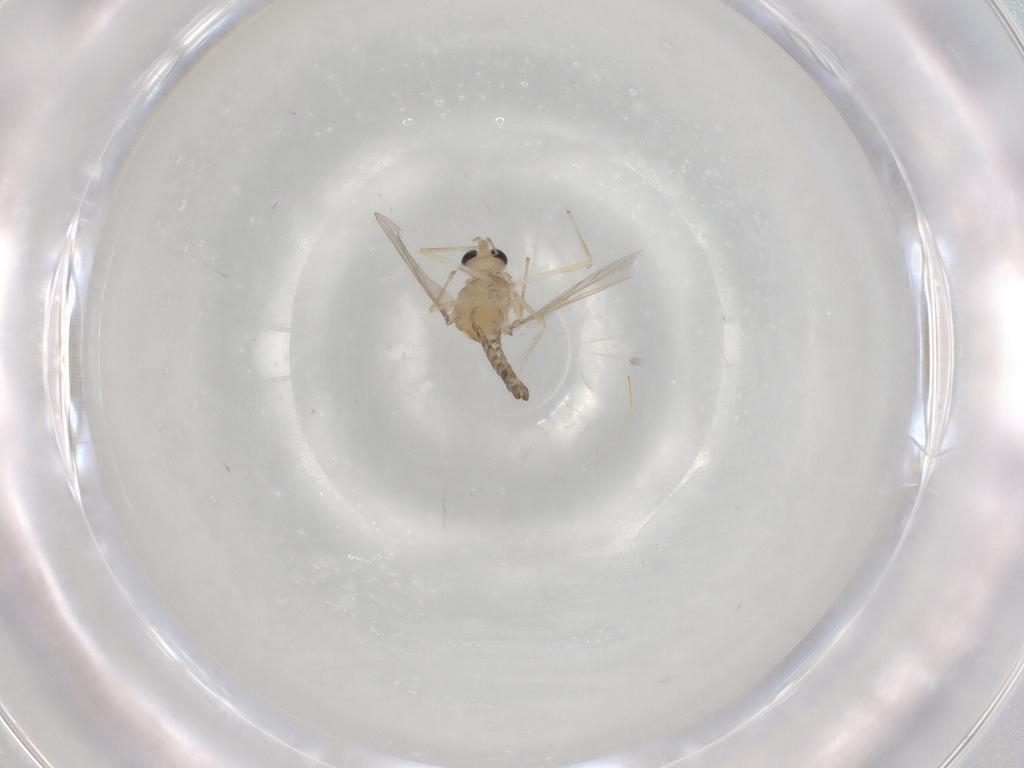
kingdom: Animalia
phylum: Arthropoda
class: Insecta
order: Diptera
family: Chironomidae
